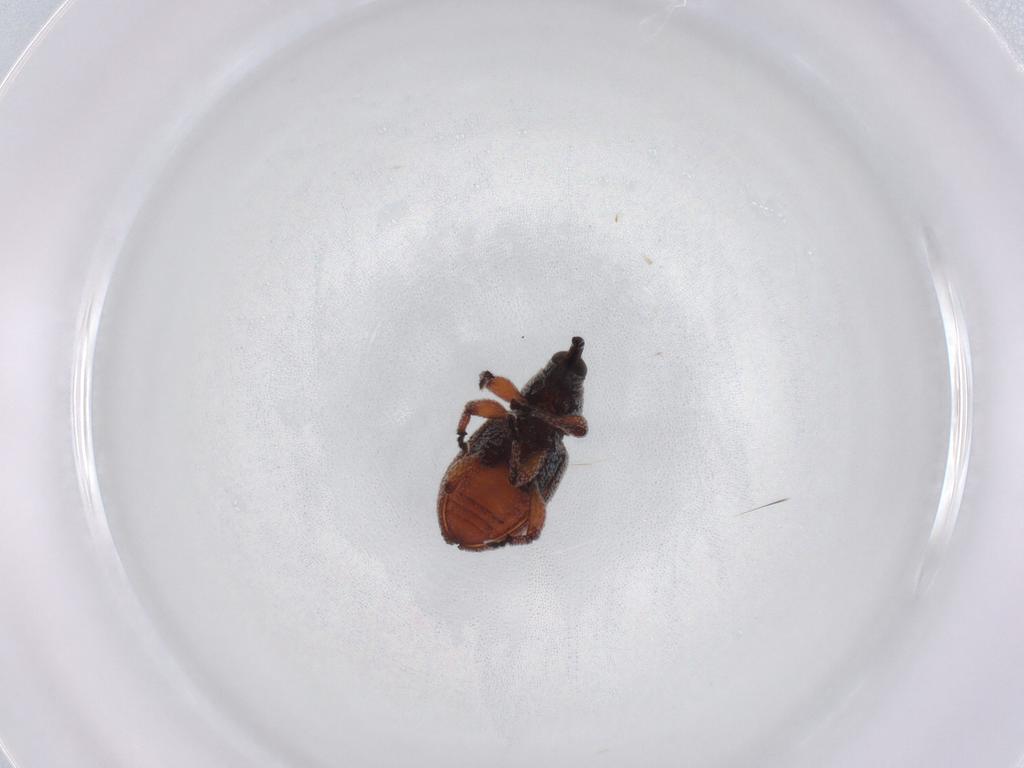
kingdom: Animalia
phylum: Arthropoda
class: Insecta
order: Coleoptera
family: Curculionidae
